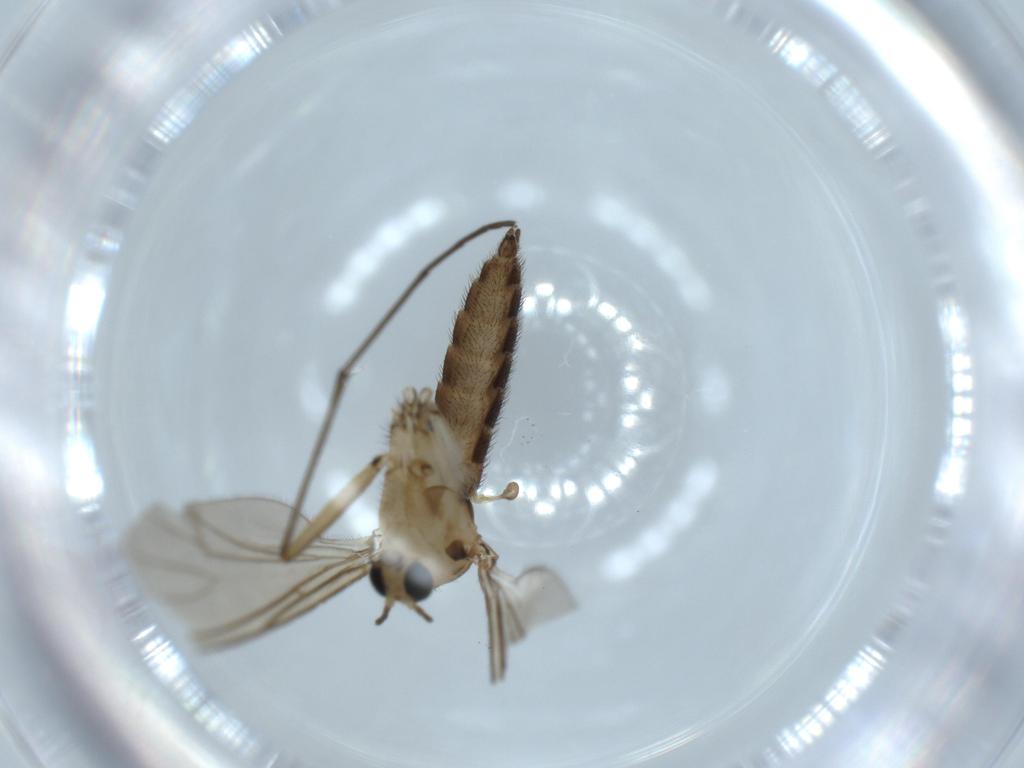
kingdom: Animalia
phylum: Arthropoda
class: Insecta
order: Diptera
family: Sciaridae
